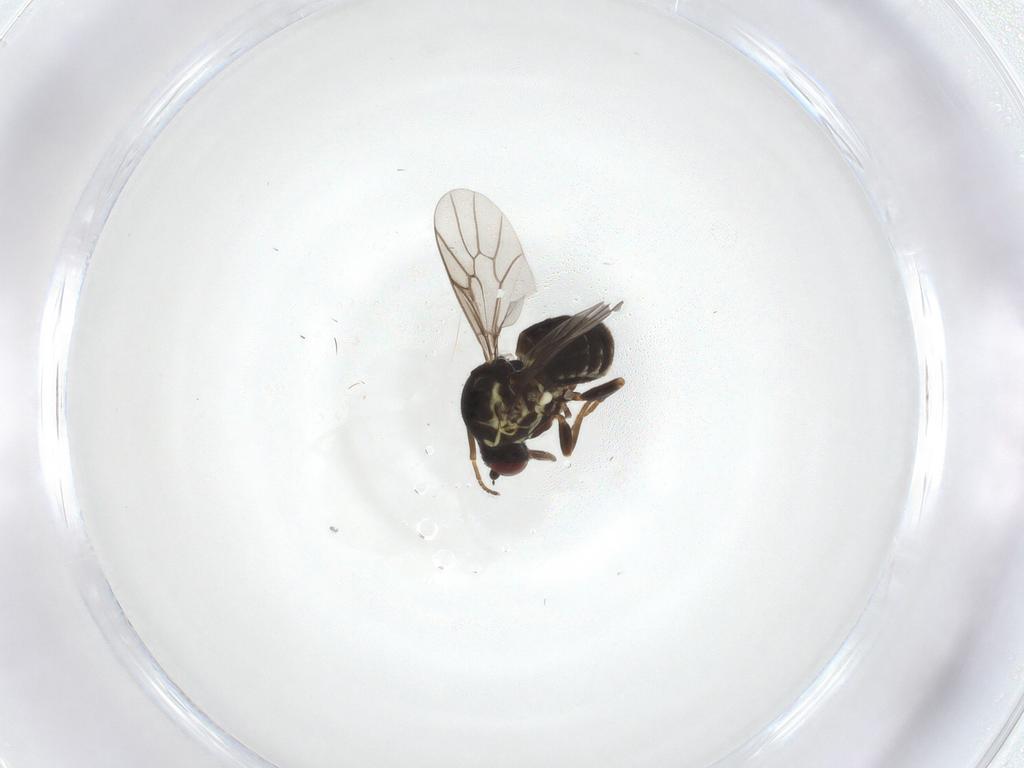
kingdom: Animalia
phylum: Arthropoda
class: Insecta
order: Diptera
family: Bombyliidae
